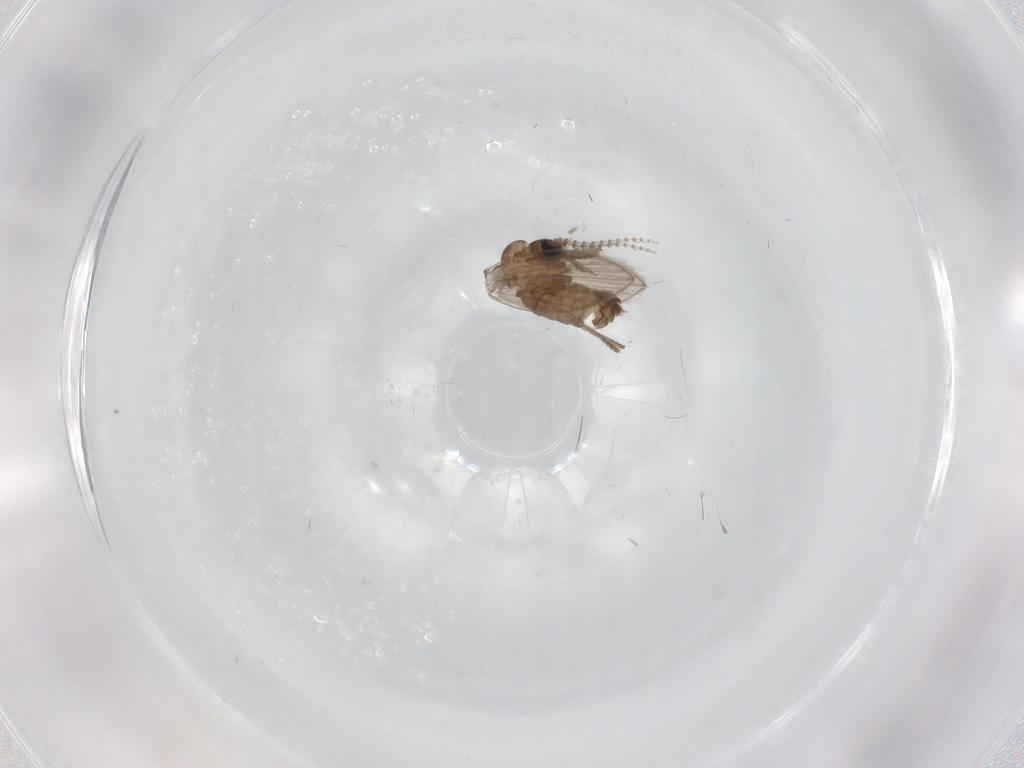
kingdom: Animalia
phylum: Arthropoda
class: Insecta
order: Diptera
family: Psychodidae
